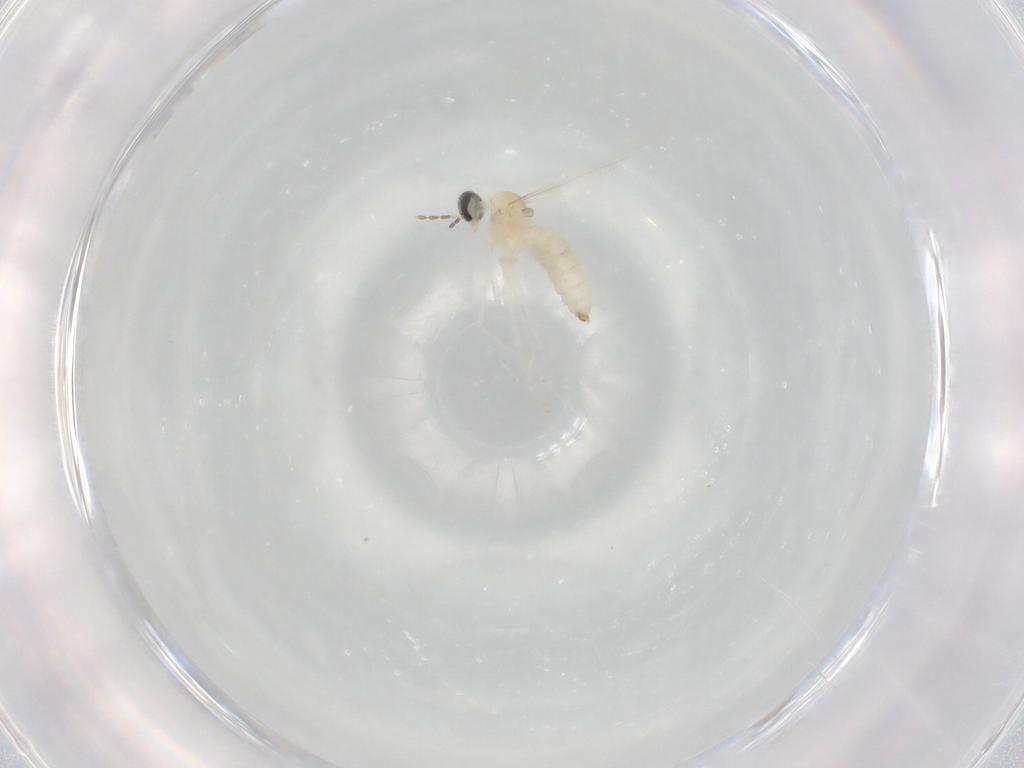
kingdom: Animalia
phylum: Arthropoda
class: Insecta
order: Diptera
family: Cecidomyiidae
